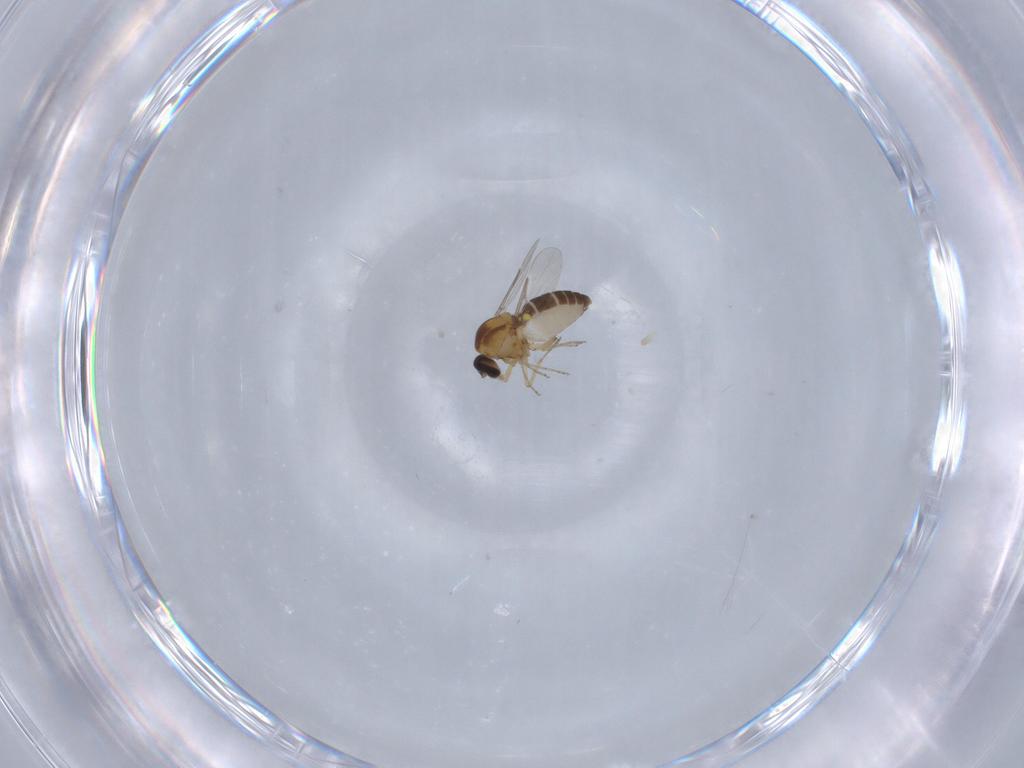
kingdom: Animalia
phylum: Arthropoda
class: Insecta
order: Diptera
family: Ceratopogonidae
